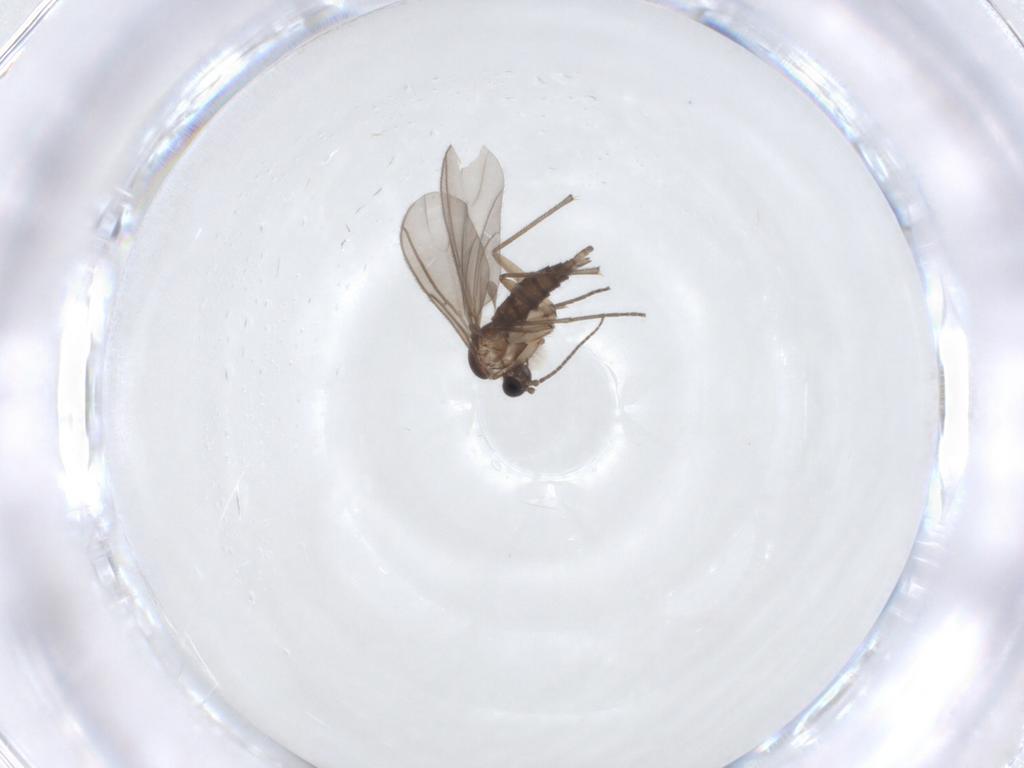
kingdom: Animalia
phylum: Arthropoda
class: Insecta
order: Diptera
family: Sciaridae
